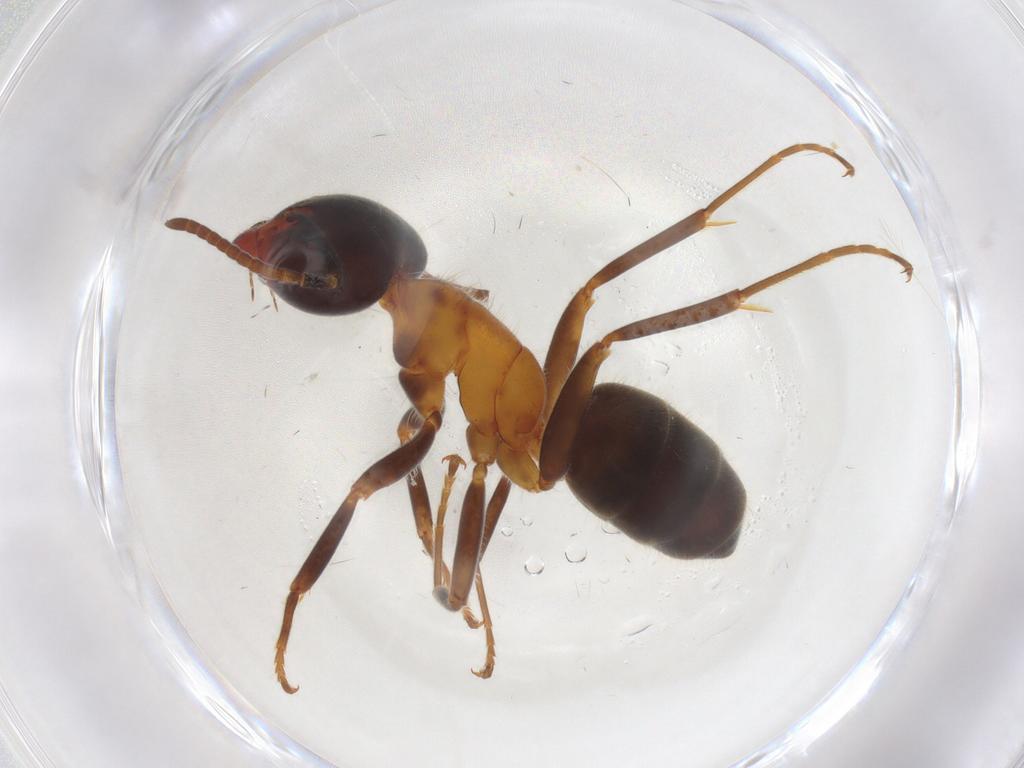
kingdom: Animalia
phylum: Arthropoda
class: Insecta
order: Hymenoptera
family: Formicidae
